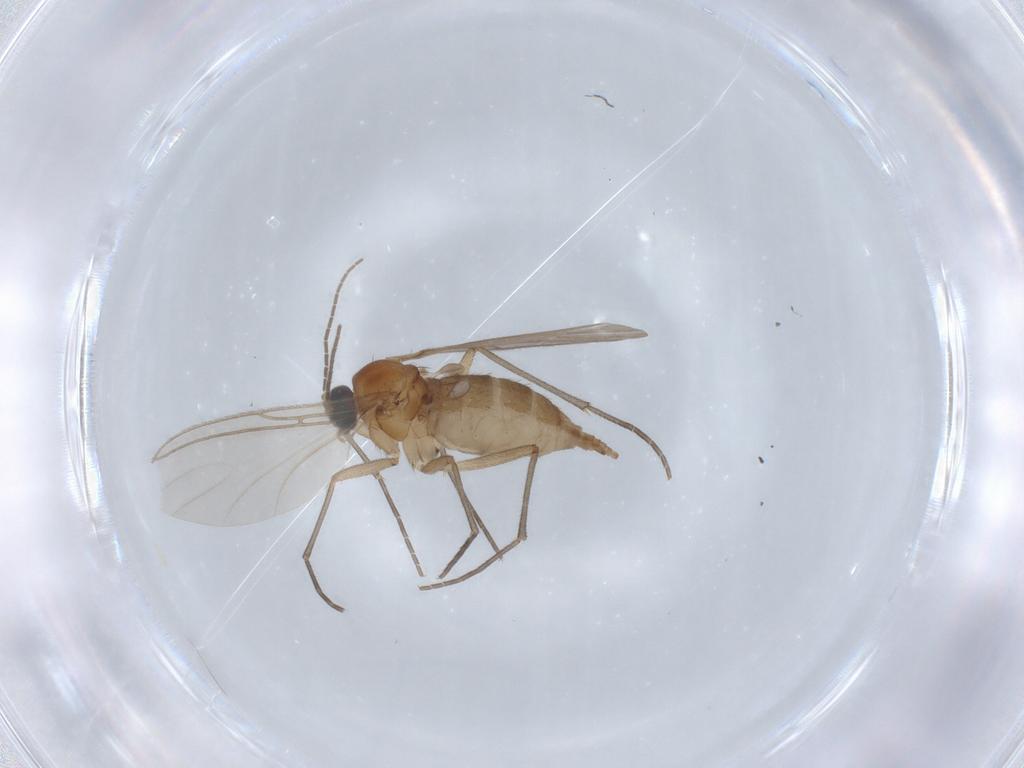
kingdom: Animalia
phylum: Arthropoda
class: Insecta
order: Diptera
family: Sciaridae
